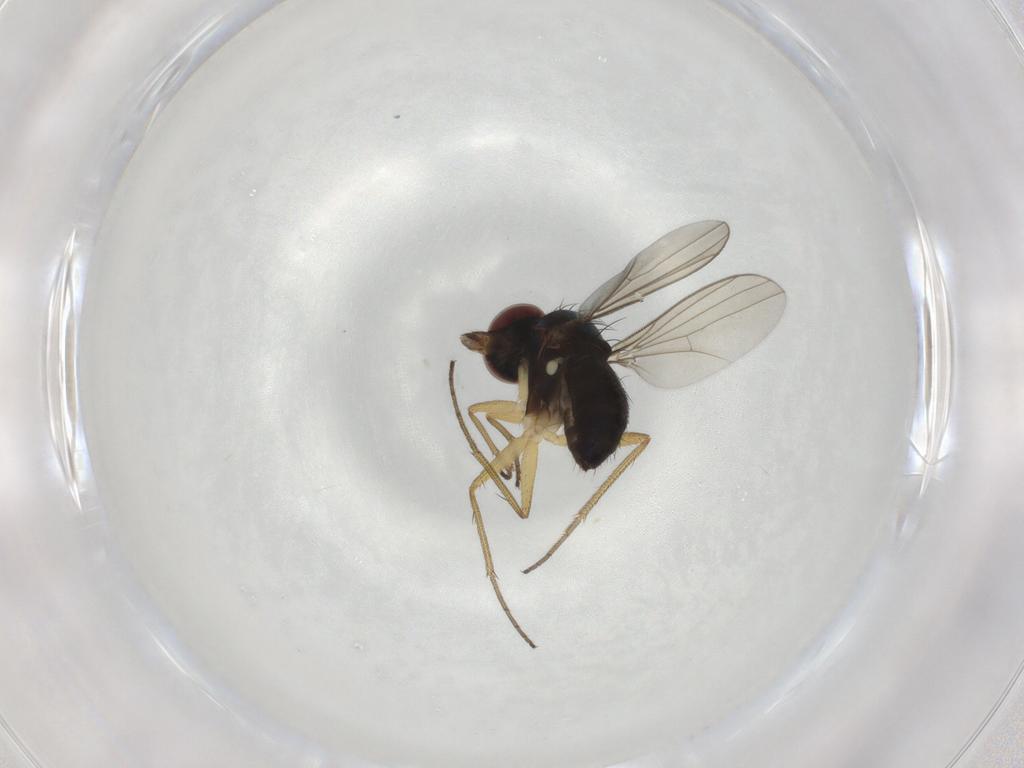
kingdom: Animalia
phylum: Arthropoda
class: Insecta
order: Diptera
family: Dolichopodidae
